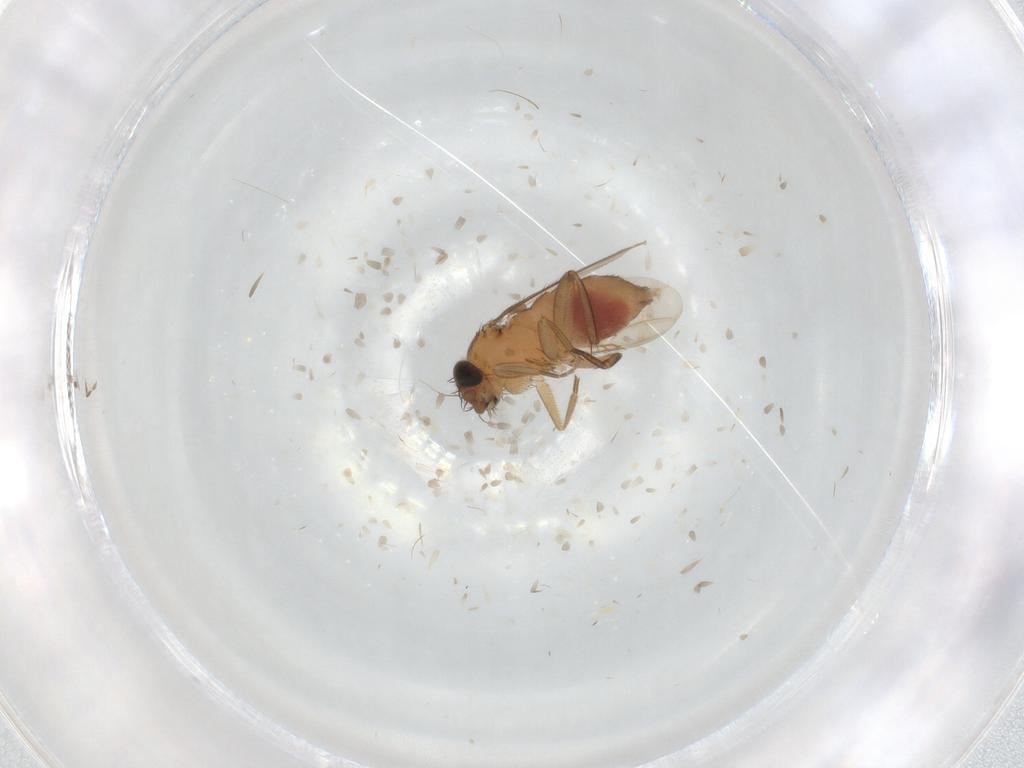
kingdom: Animalia
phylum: Arthropoda
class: Insecta
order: Diptera
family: Phoridae
